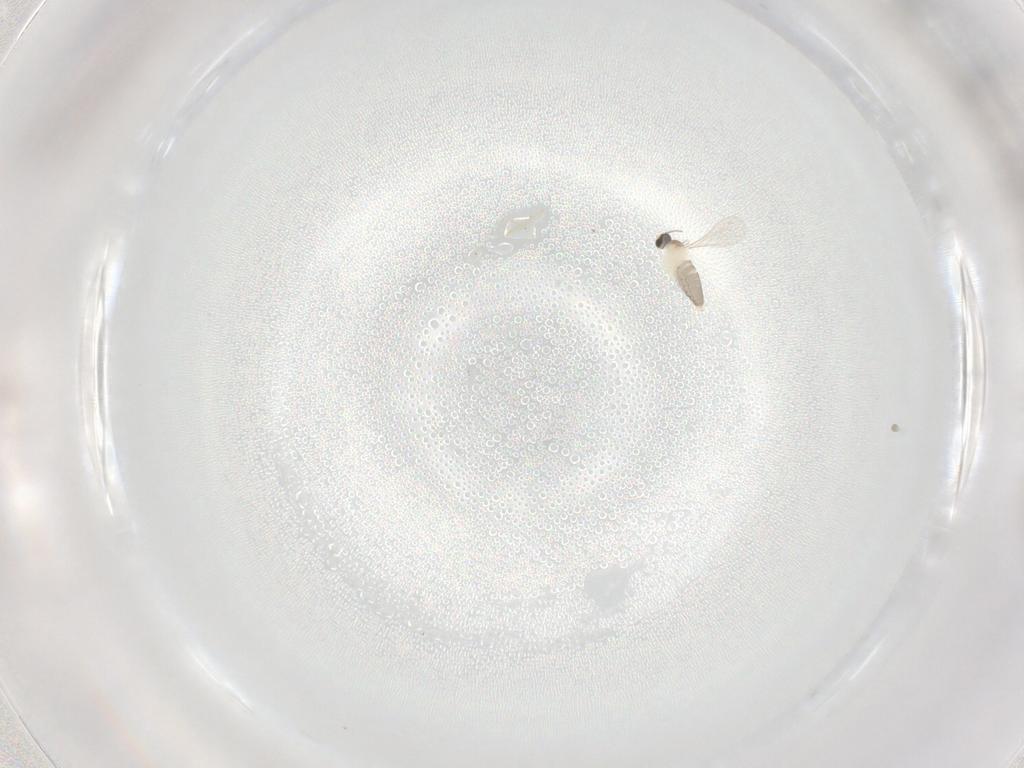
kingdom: Animalia
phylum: Arthropoda
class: Insecta
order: Diptera
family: Cecidomyiidae
